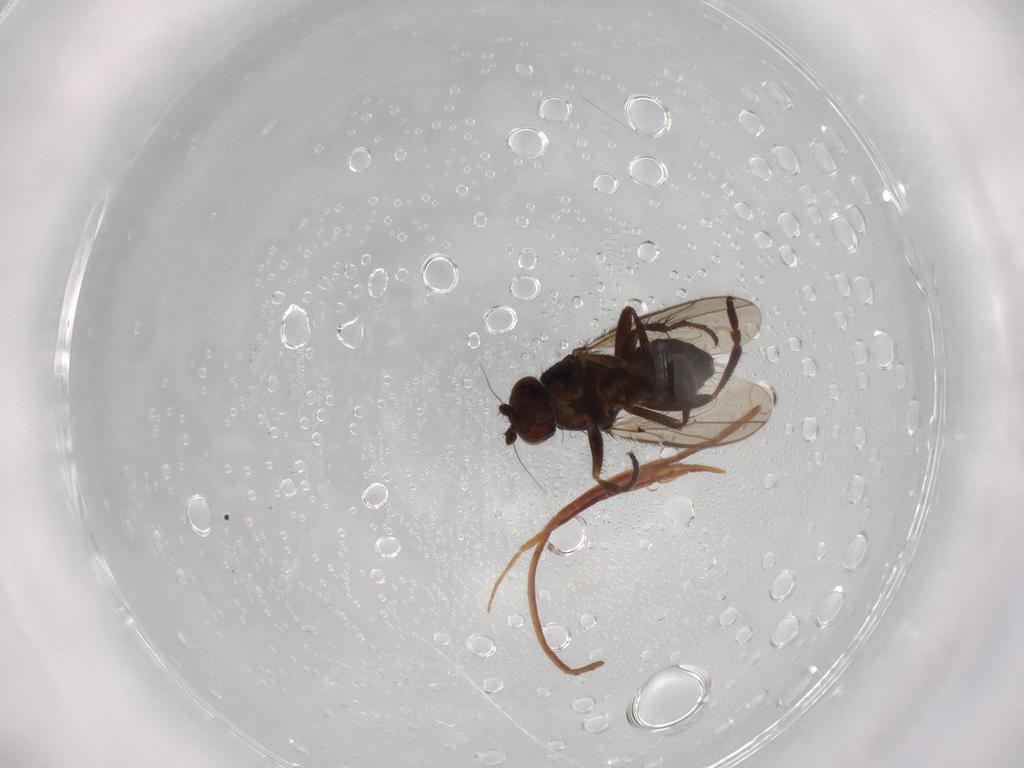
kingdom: Animalia
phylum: Arthropoda
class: Insecta
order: Diptera
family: Sphaeroceridae
